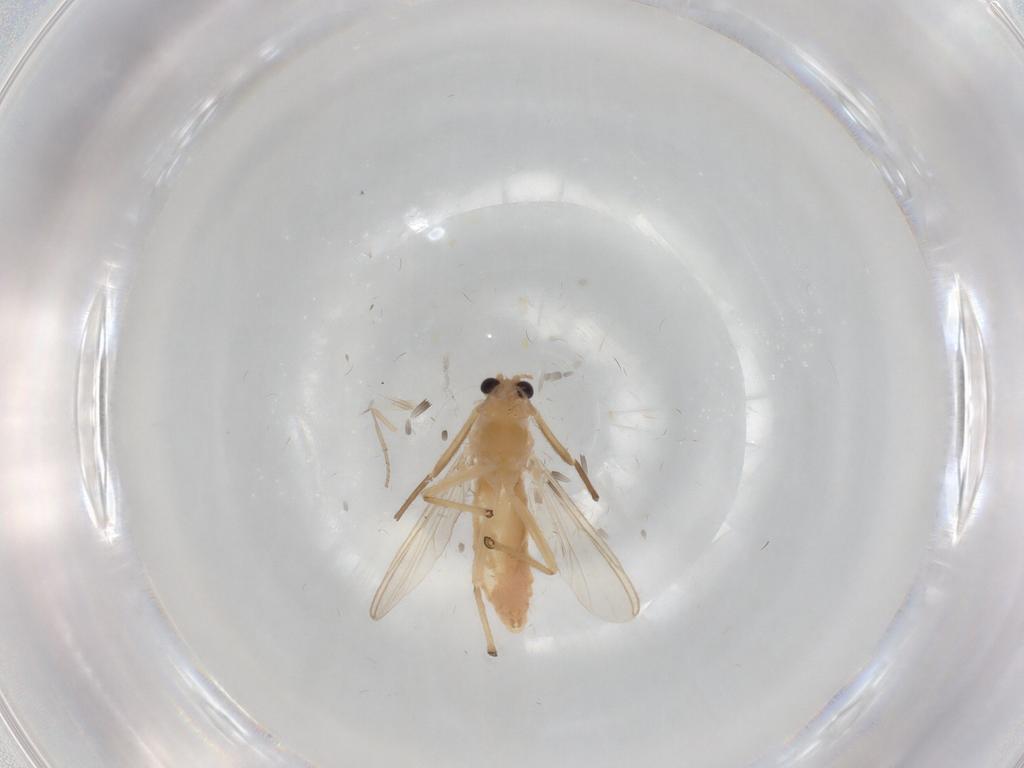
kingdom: Animalia
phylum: Arthropoda
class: Insecta
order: Diptera
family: Chironomidae
